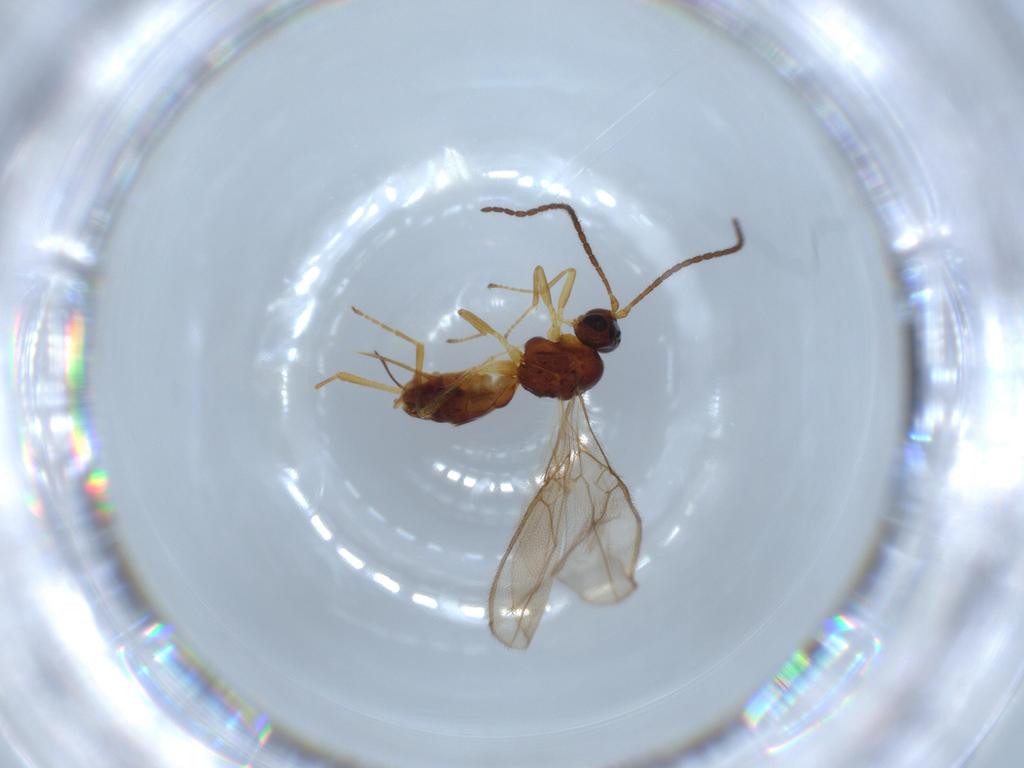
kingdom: Animalia
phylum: Arthropoda
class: Insecta
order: Hymenoptera
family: Braconidae
